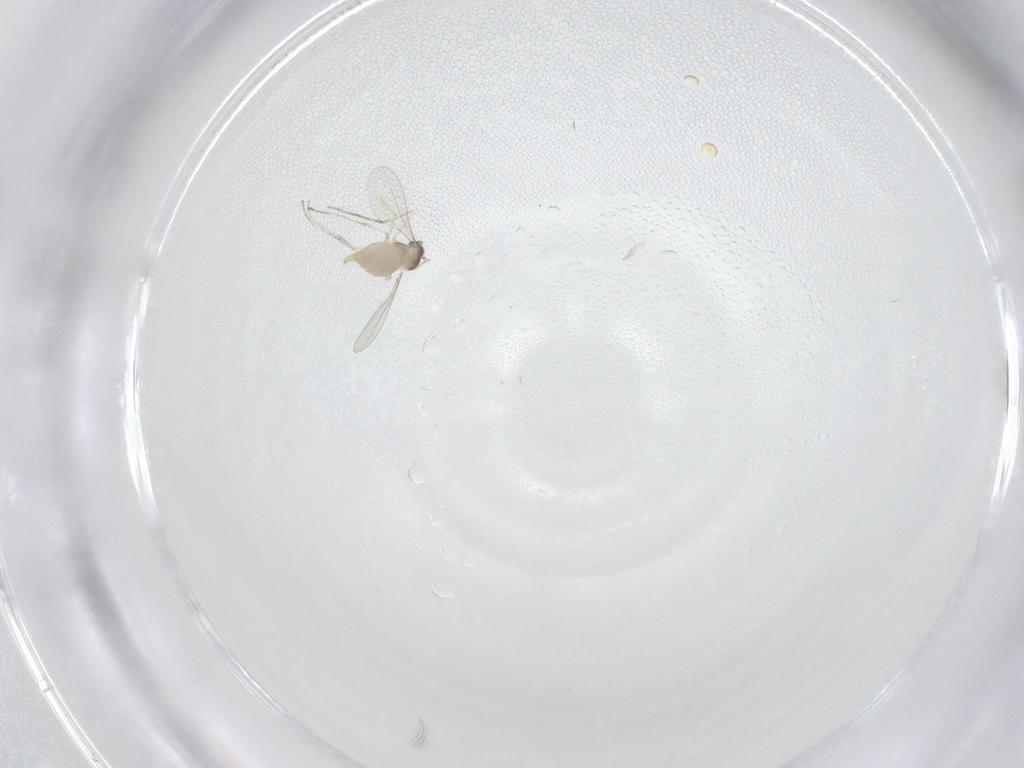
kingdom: Animalia
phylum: Arthropoda
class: Insecta
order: Diptera
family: Cecidomyiidae
